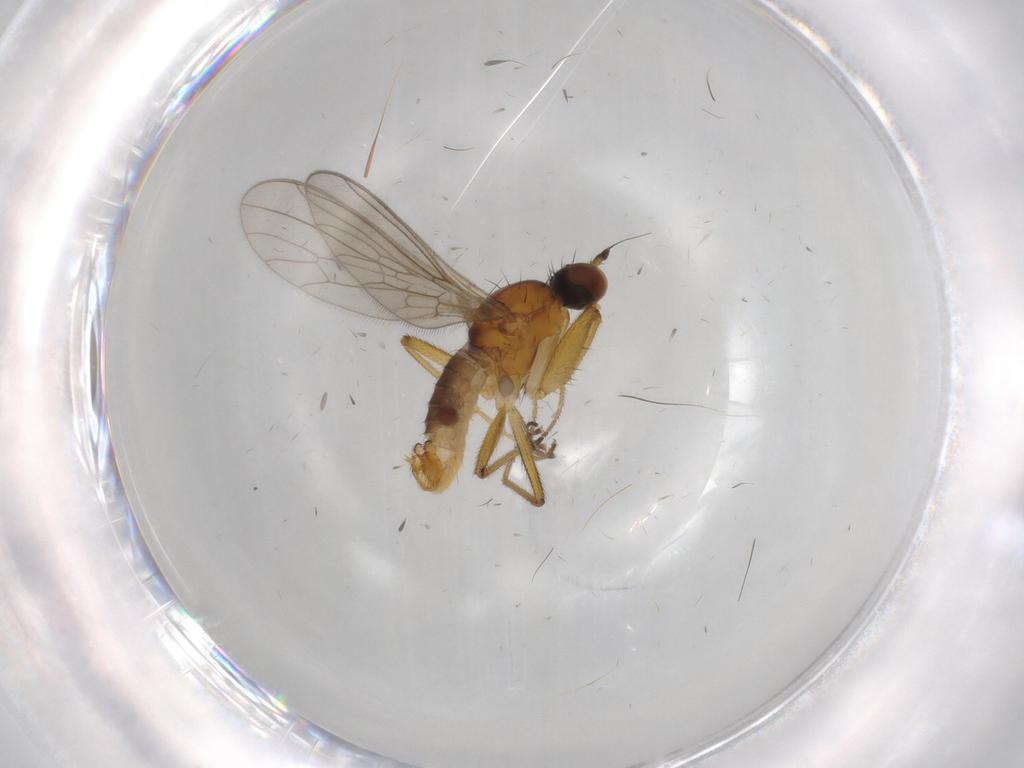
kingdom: Animalia
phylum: Arthropoda
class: Insecta
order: Diptera
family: Empididae
